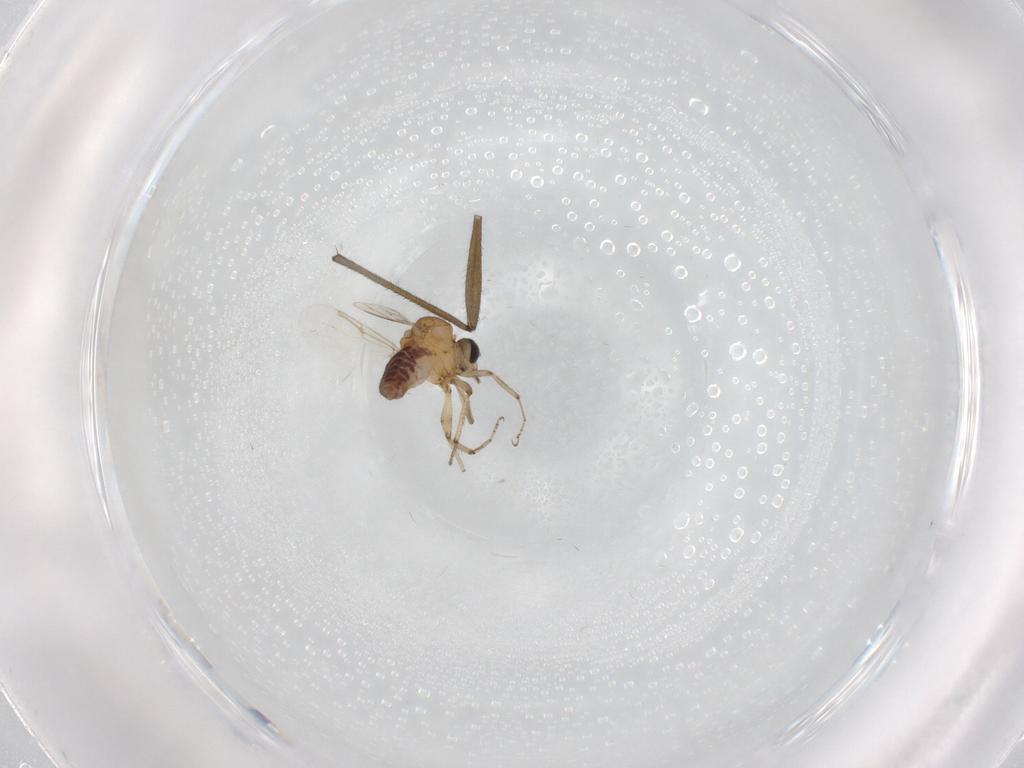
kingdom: Animalia
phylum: Arthropoda
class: Insecta
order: Diptera
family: Ceratopogonidae
